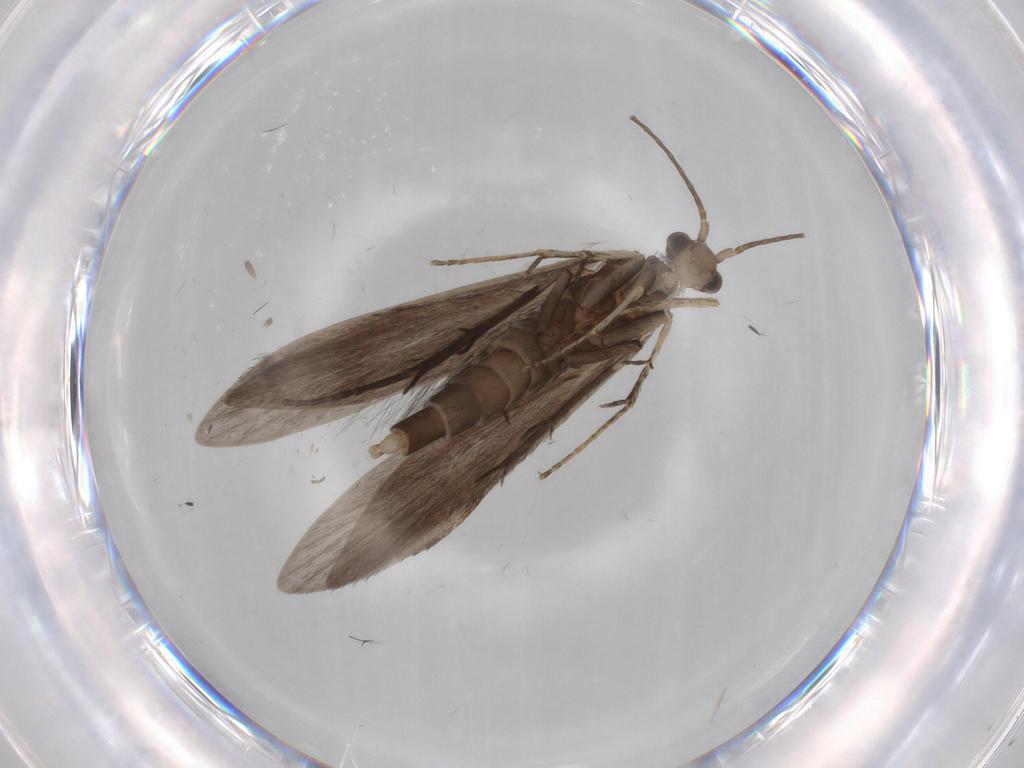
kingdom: Animalia
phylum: Arthropoda
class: Insecta
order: Trichoptera
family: Xiphocentronidae
